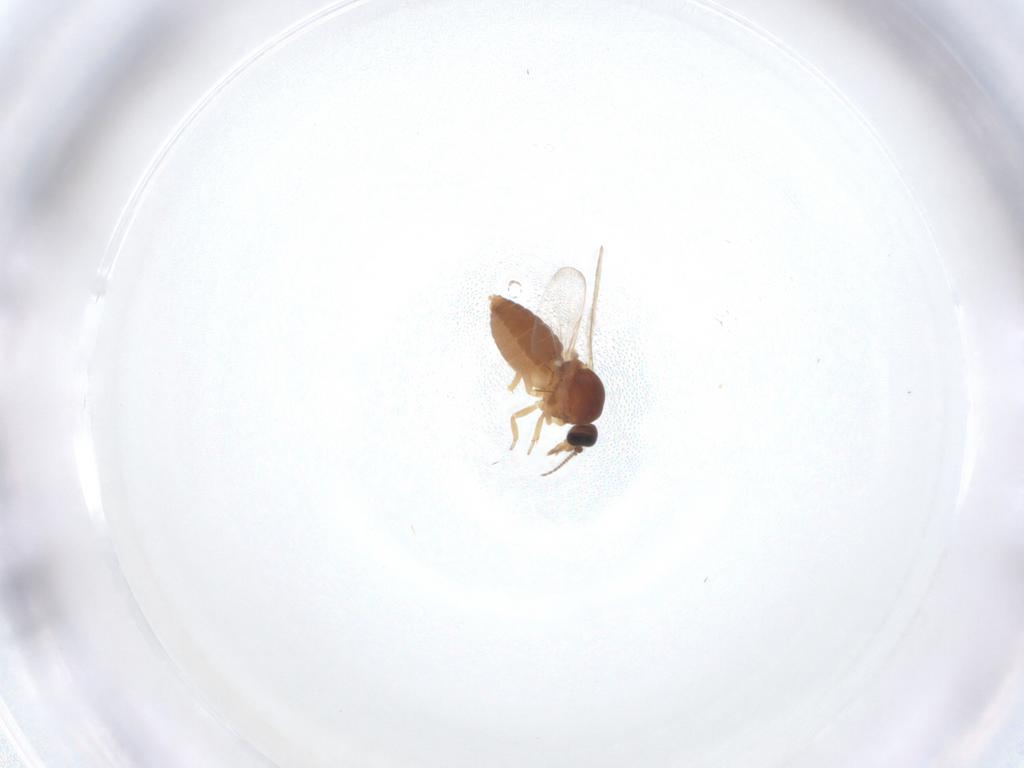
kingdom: Animalia
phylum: Arthropoda
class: Insecta
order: Diptera
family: Ceratopogonidae
